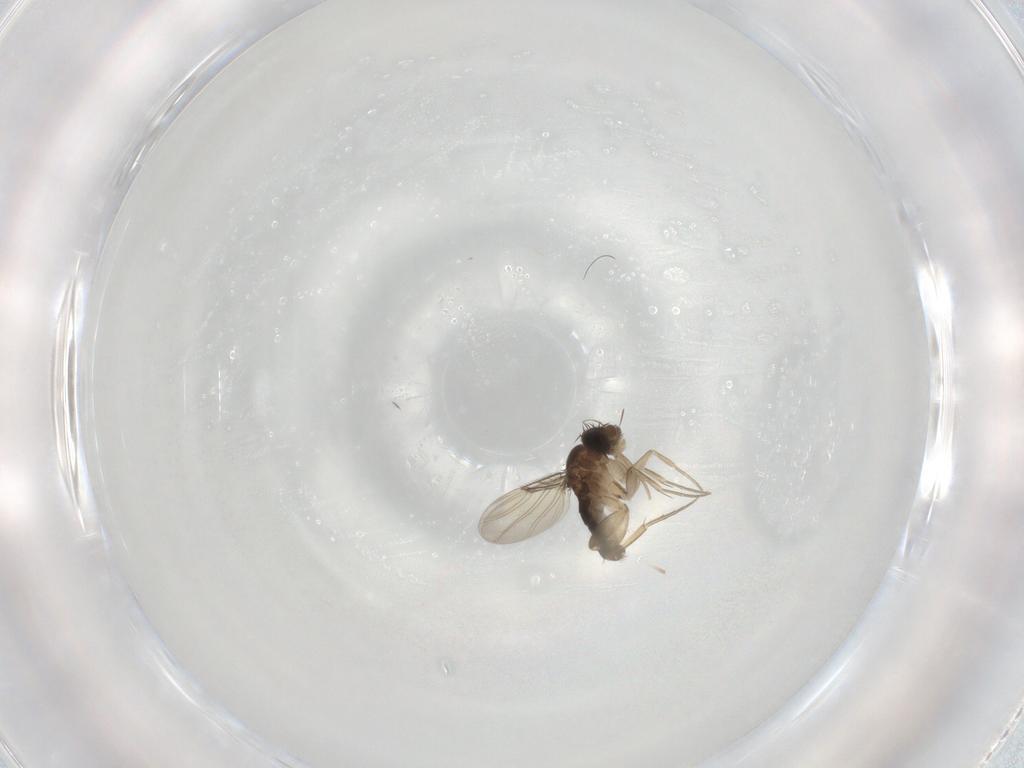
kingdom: Animalia
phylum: Arthropoda
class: Insecta
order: Diptera
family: Phoridae
